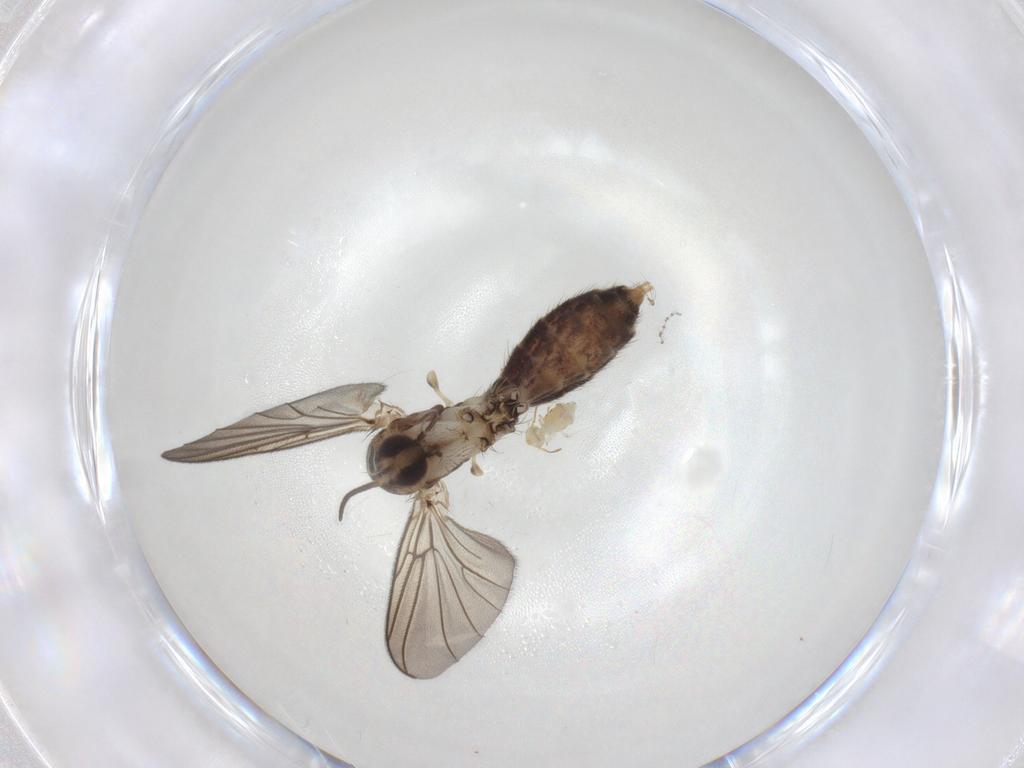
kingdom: Animalia
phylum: Arthropoda
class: Collembola
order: Symphypleona
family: Bourletiellidae
